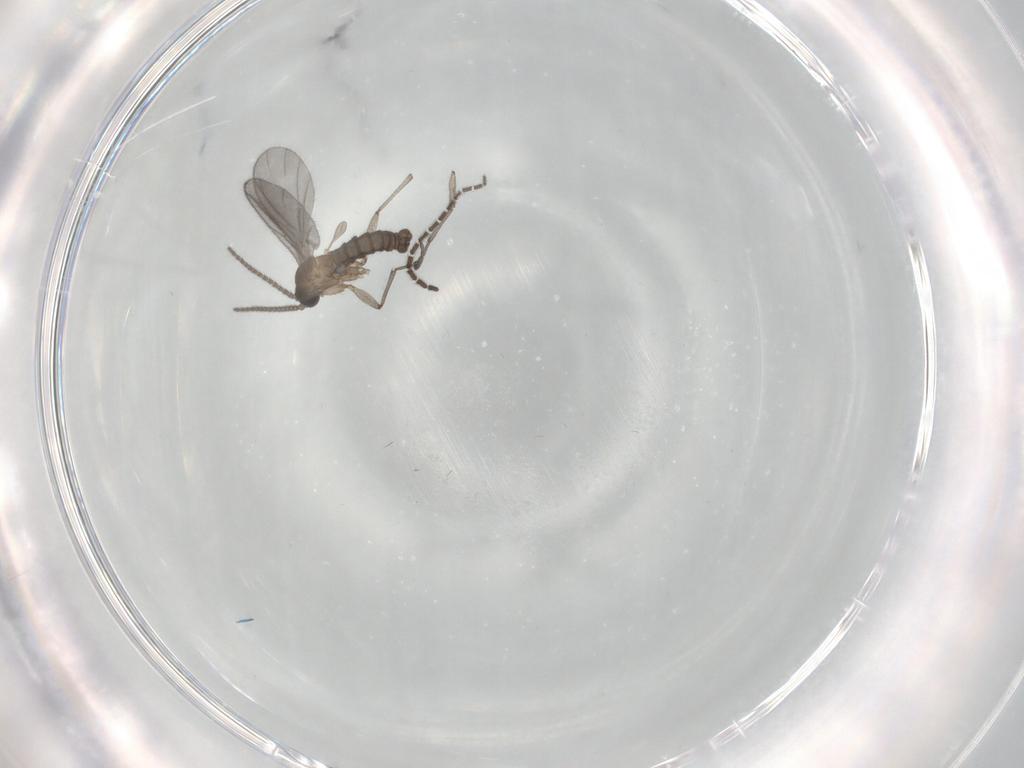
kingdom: Animalia
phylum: Arthropoda
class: Insecta
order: Diptera
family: Sciaridae
